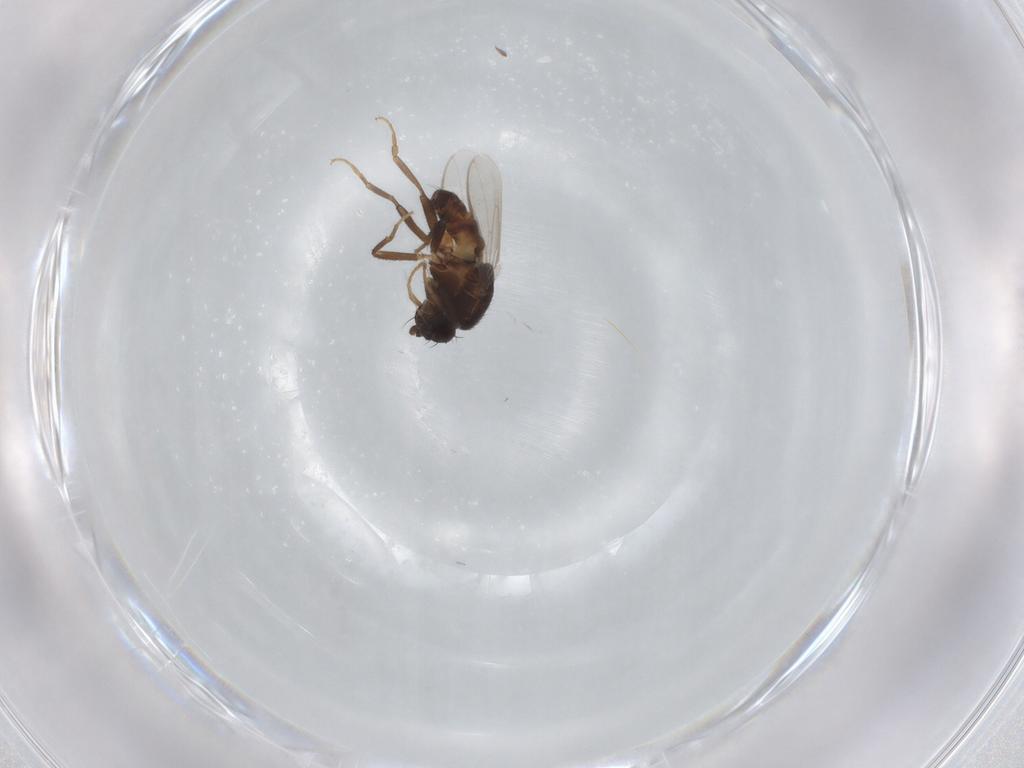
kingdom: Animalia
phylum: Arthropoda
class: Insecta
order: Diptera
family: Sphaeroceridae
